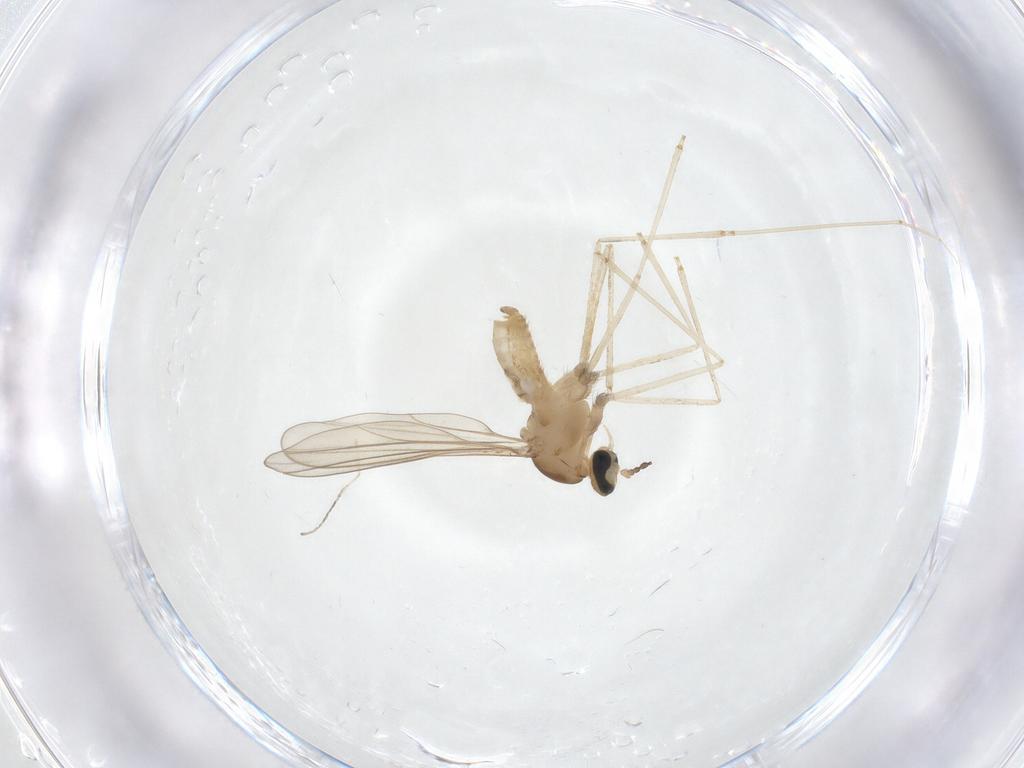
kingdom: Animalia
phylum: Arthropoda
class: Insecta
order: Diptera
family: Cecidomyiidae
